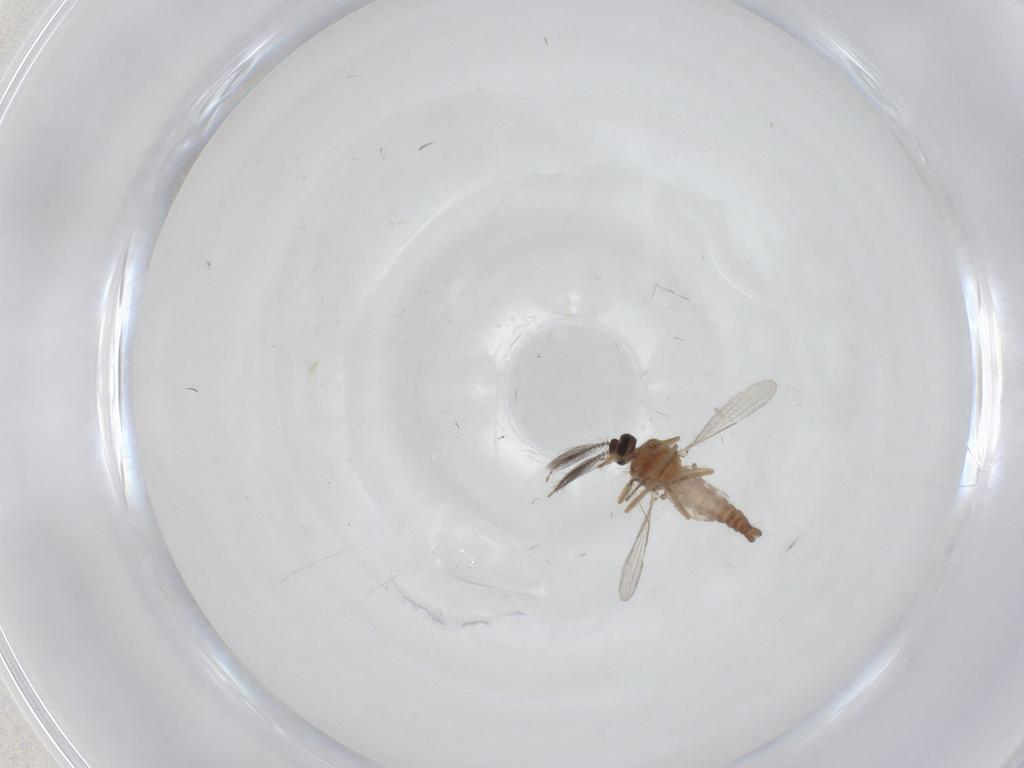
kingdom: Animalia
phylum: Arthropoda
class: Insecta
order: Diptera
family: Ceratopogonidae
